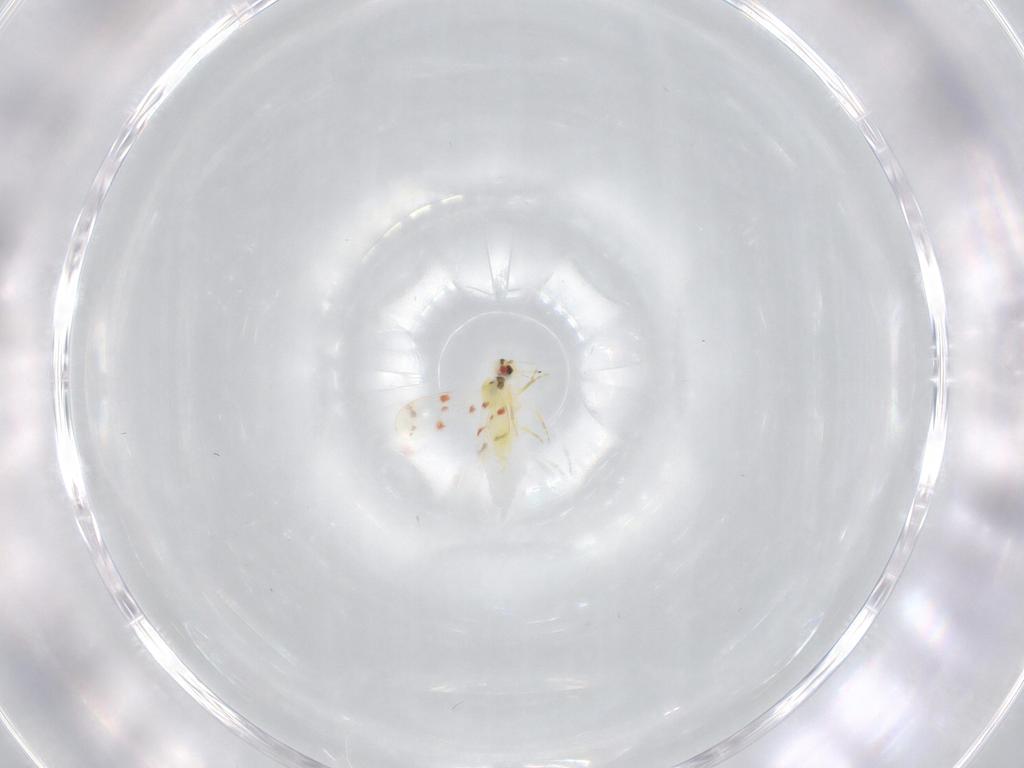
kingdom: Animalia
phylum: Arthropoda
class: Insecta
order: Hemiptera
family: Aleyrodidae
